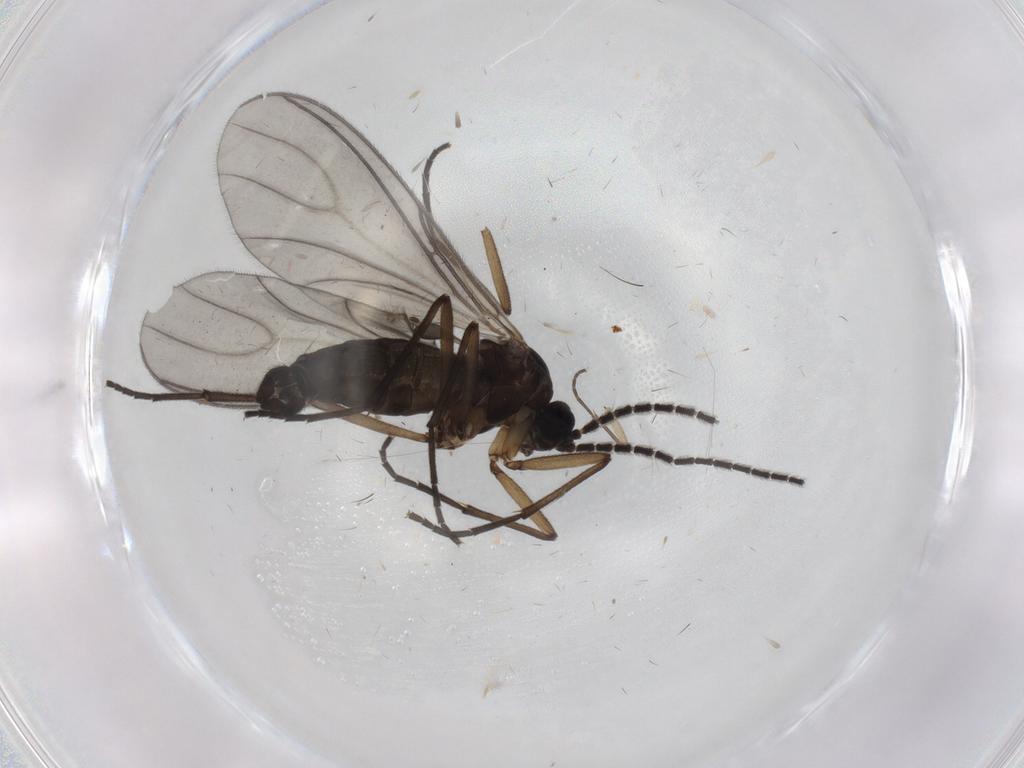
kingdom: Animalia
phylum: Arthropoda
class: Insecta
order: Diptera
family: Sciaridae
